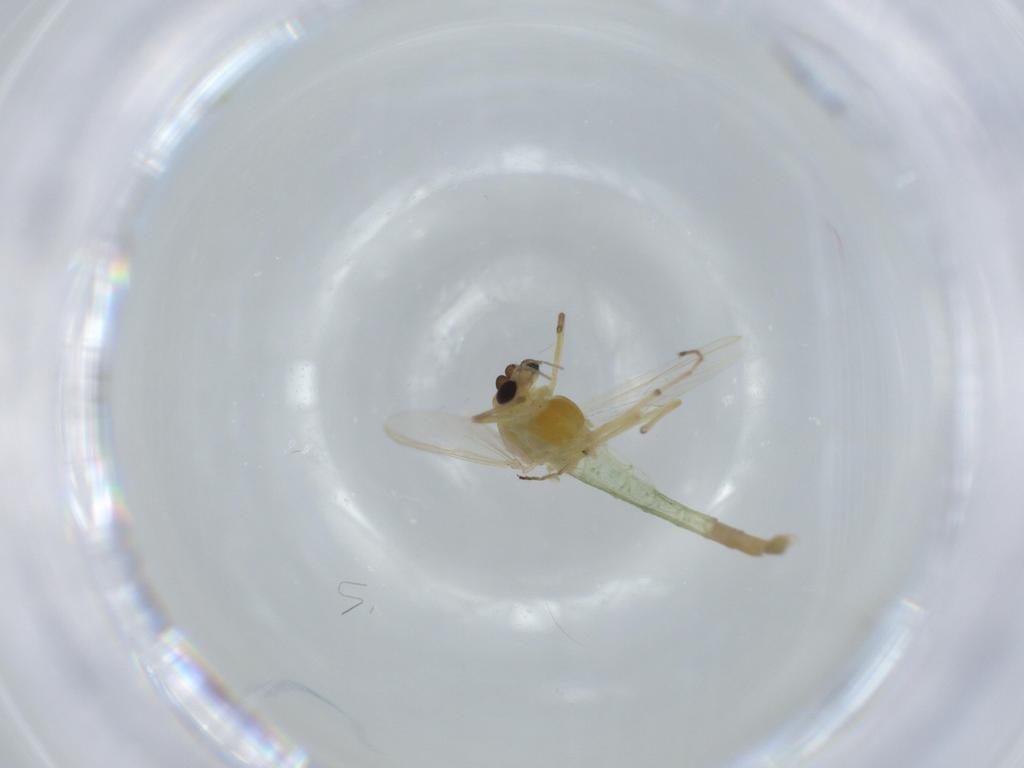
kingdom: Animalia
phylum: Arthropoda
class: Insecta
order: Diptera
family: Chironomidae
